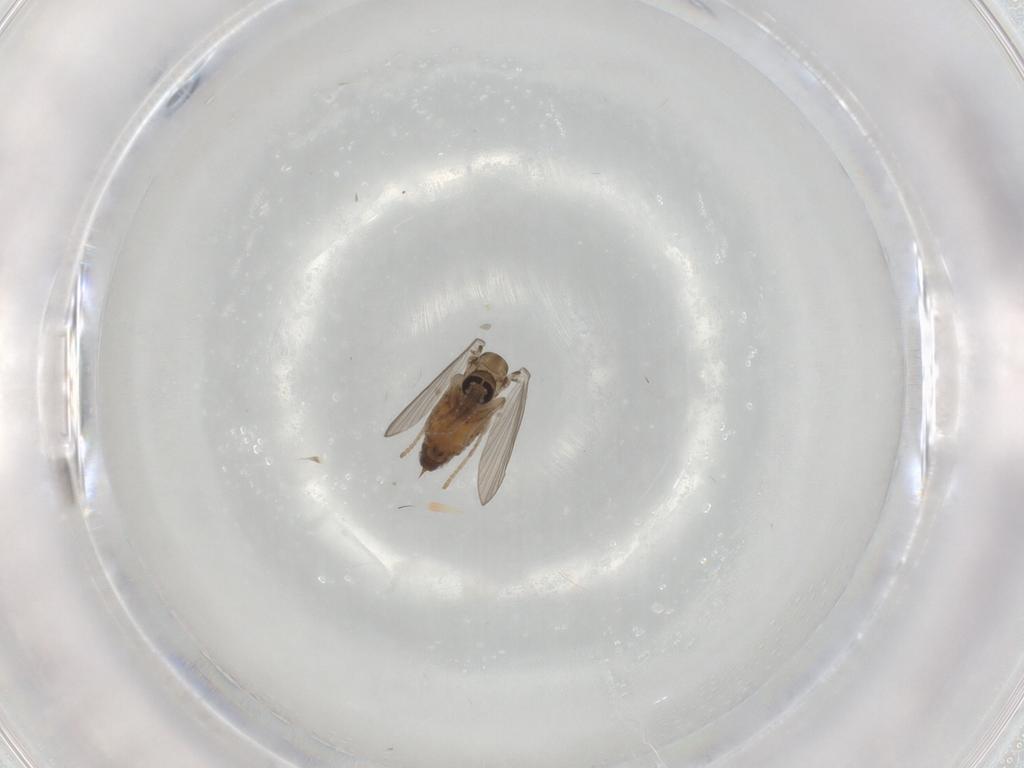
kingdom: Animalia
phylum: Arthropoda
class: Insecta
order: Diptera
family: Psychodidae
